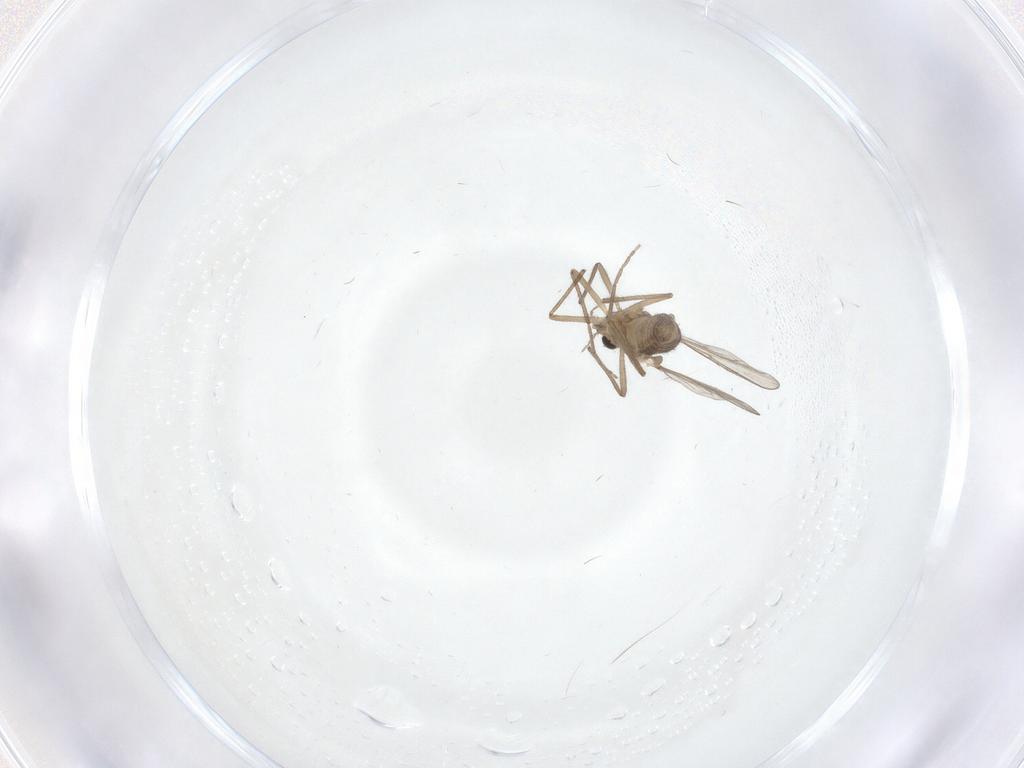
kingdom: Animalia
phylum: Arthropoda
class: Insecta
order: Diptera
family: Chironomidae
